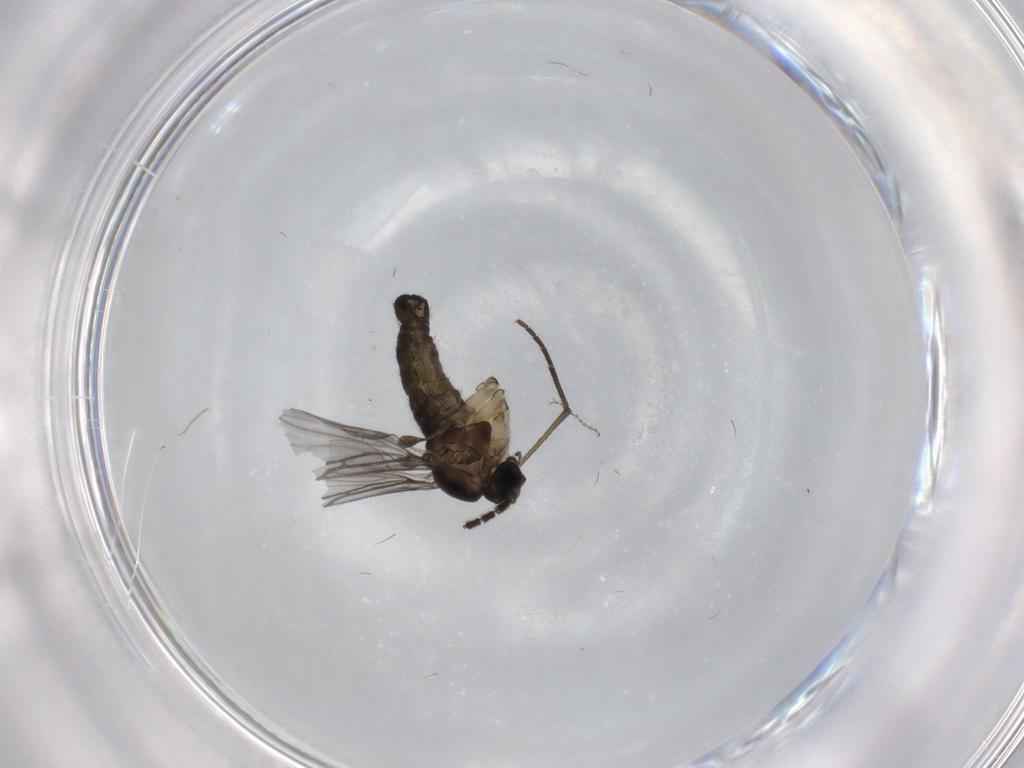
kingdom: Animalia
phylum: Arthropoda
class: Insecta
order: Diptera
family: Sciaridae
